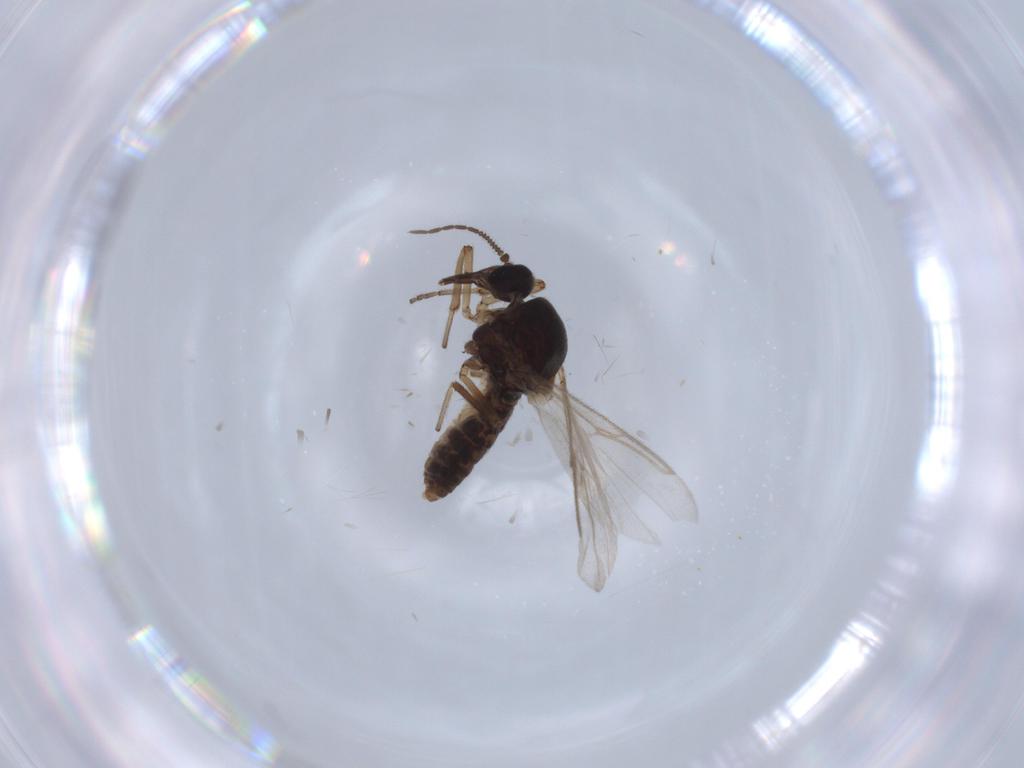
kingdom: Animalia
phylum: Arthropoda
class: Insecta
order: Diptera
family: Ceratopogonidae
